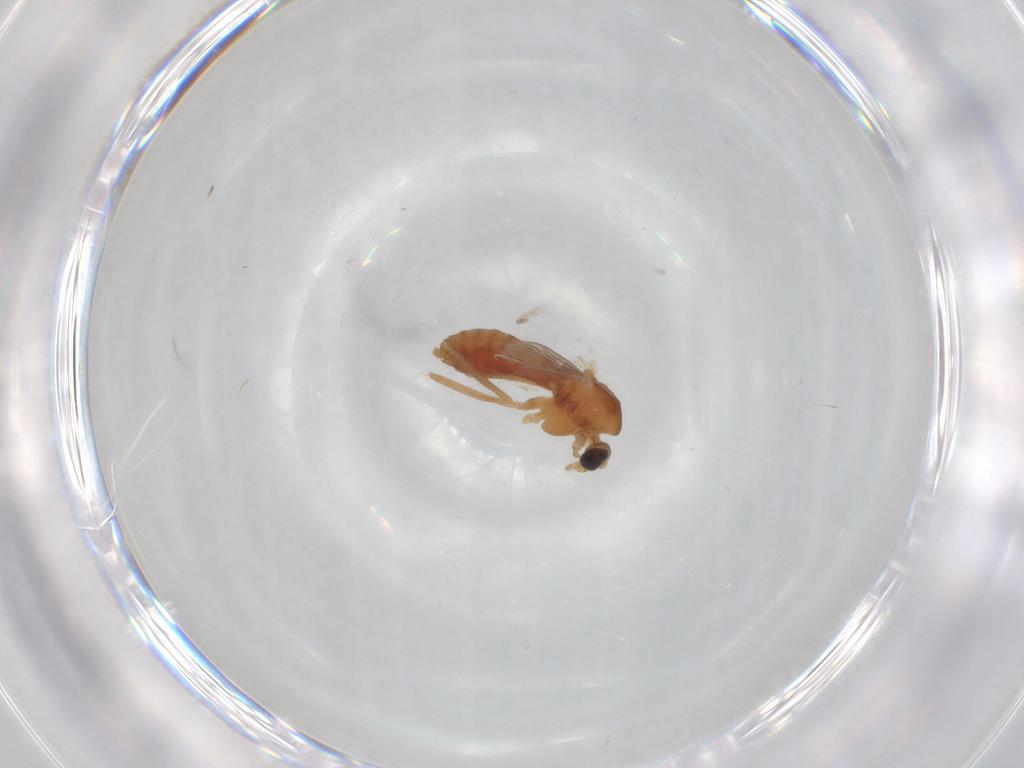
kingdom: Animalia
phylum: Arthropoda
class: Insecta
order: Diptera
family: Chironomidae
